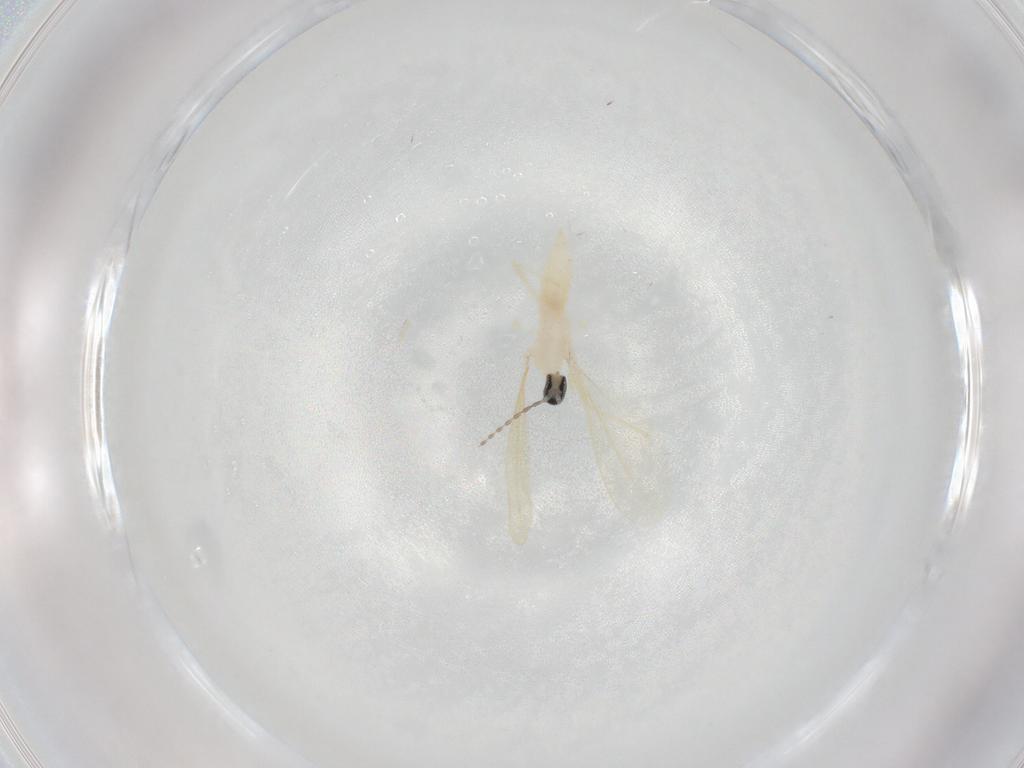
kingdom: Animalia
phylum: Arthropoda
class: Insecta
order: Diptera
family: Cecidomyiidae
